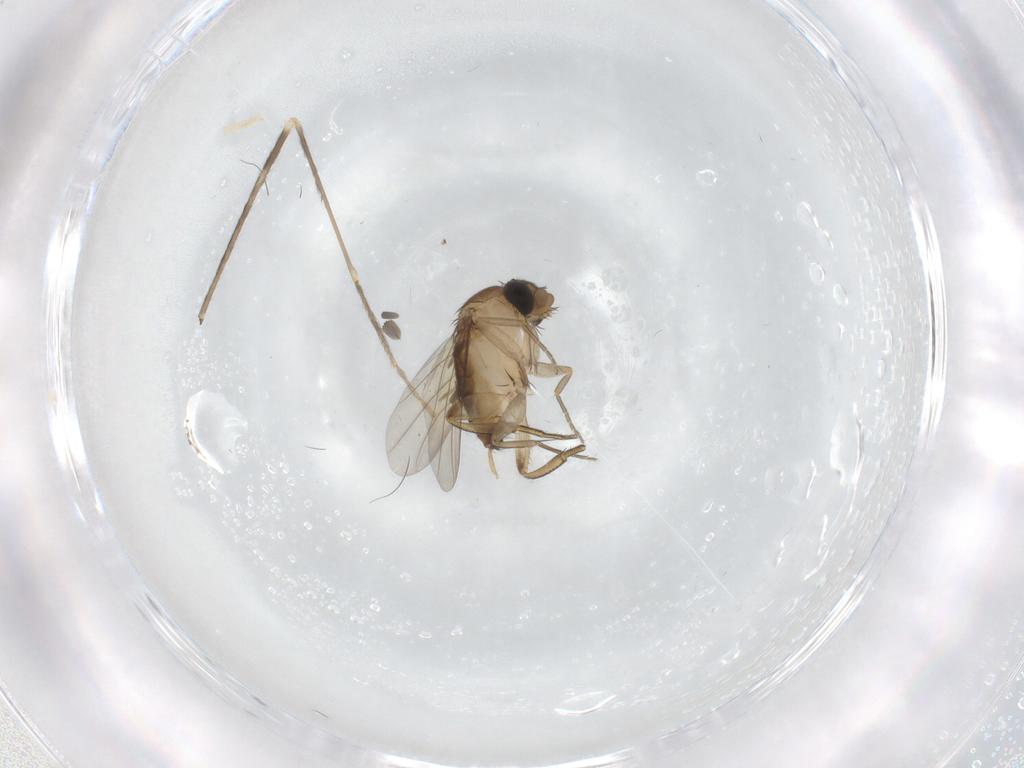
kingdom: Animalia
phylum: Arthropoda
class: Insecta
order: Diptera
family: Phoridae
